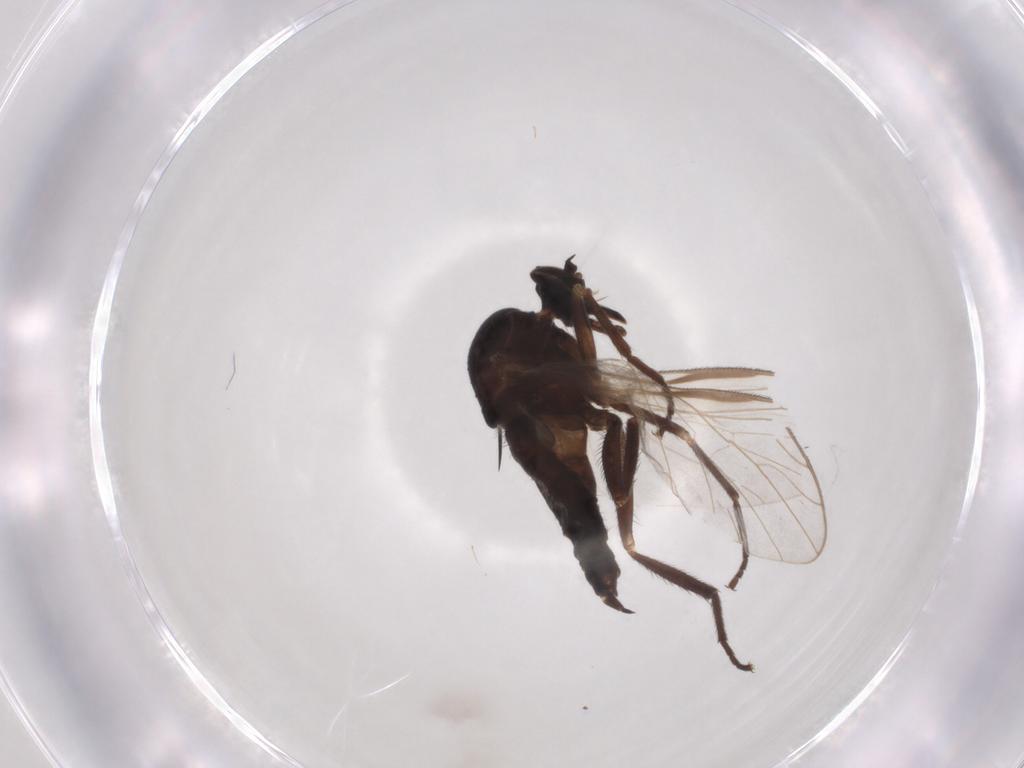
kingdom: Animalia
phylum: Arthropoda
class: Insecta
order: Diptera
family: Empididae
